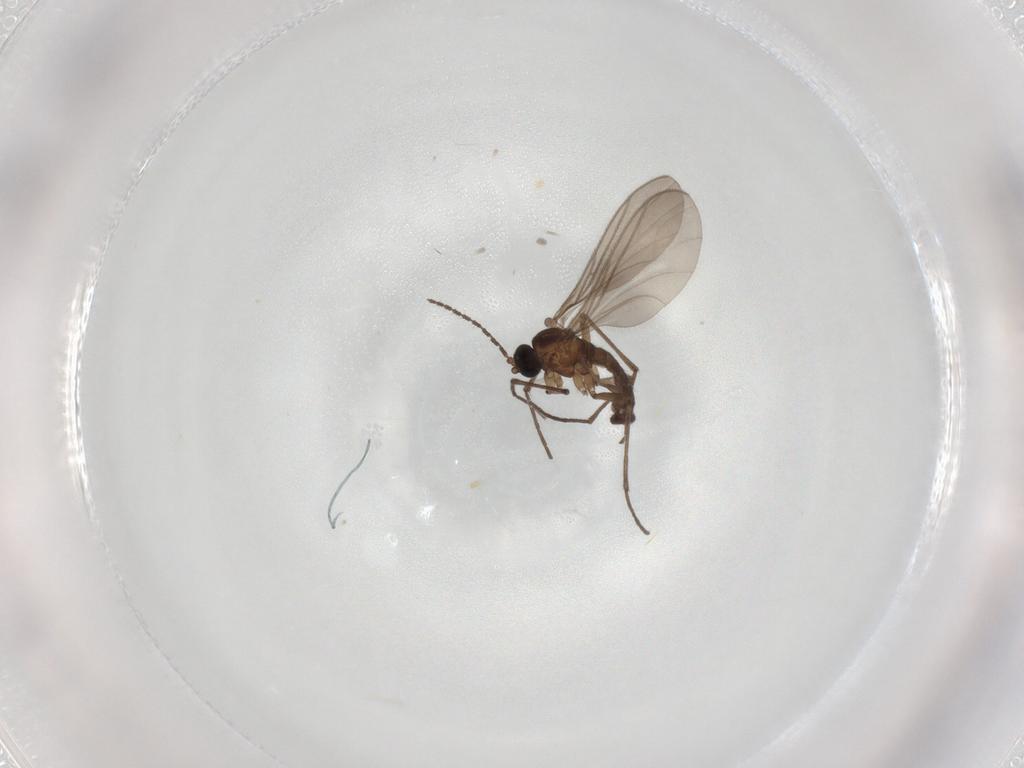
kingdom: Animalia
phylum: Arthropoda
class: Insecta
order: Diptera
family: Sciaridae
